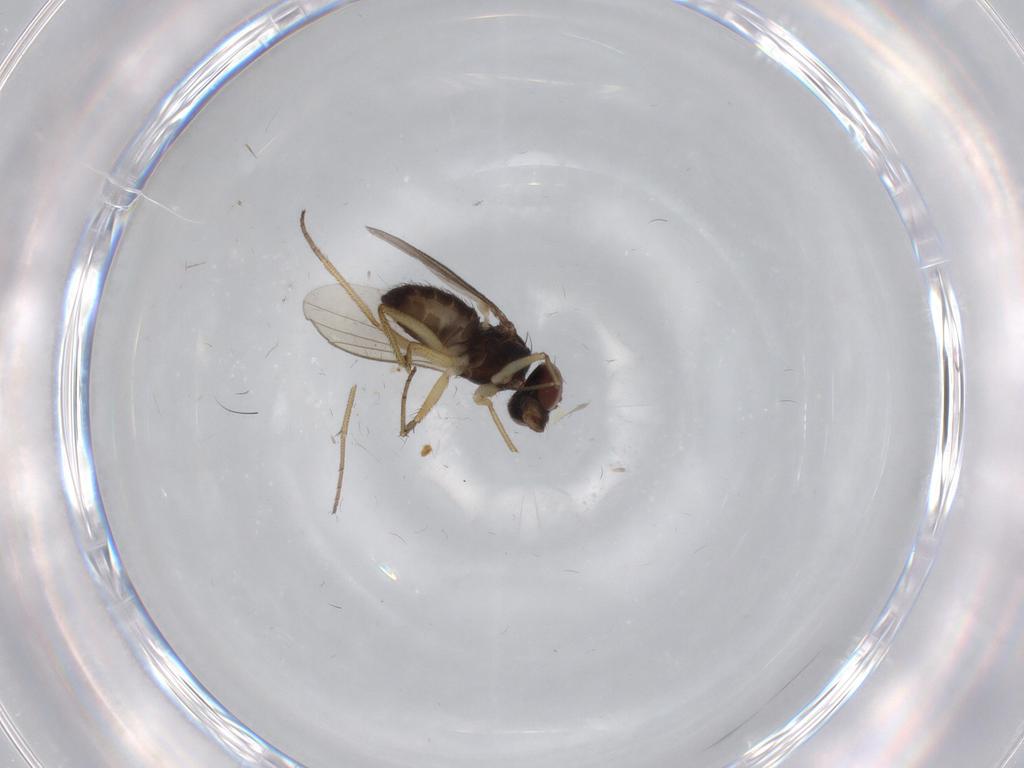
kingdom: Animalia
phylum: Arthropoda
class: Insecta
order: Diptera
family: Dolichopodidae
